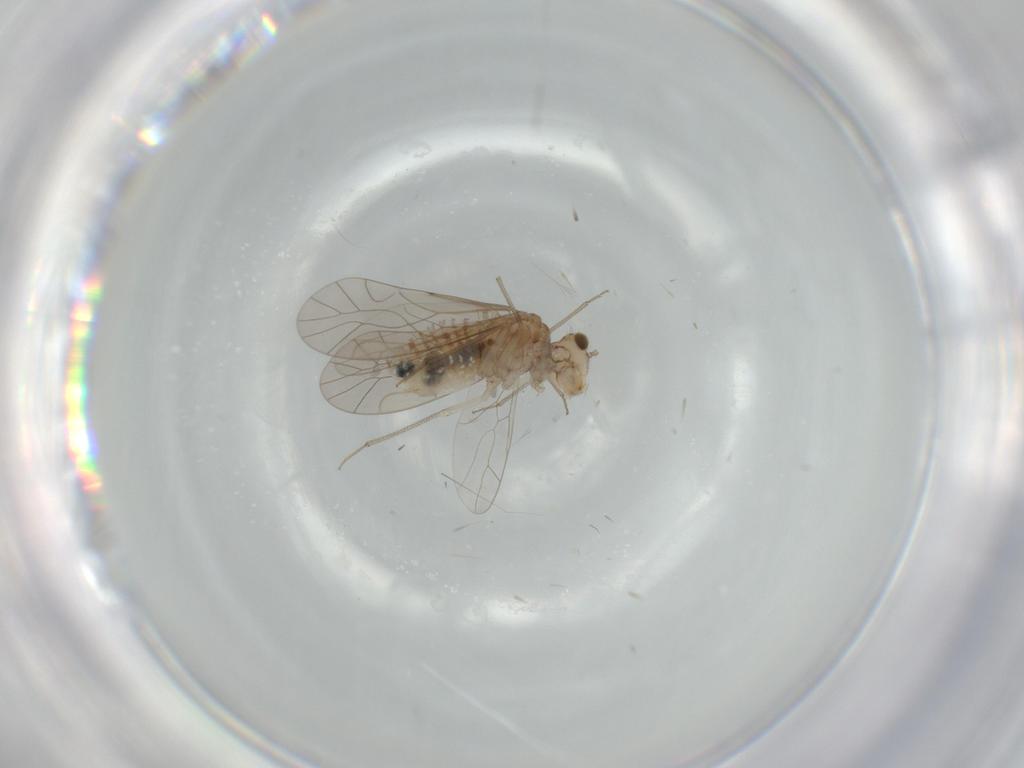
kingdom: Animalia
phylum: Arthropoda
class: Insecta
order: Psocodea
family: Lachesillidae
